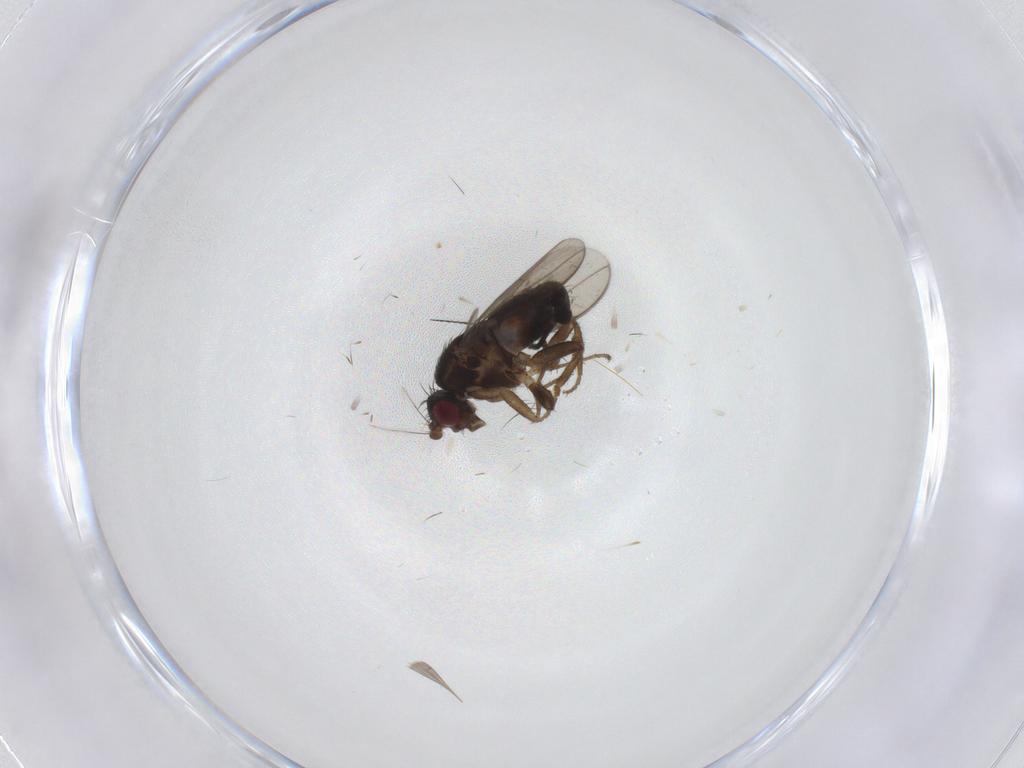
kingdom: Animalia
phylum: Arthropoda
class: Insecta
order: Diptera
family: Sphaeroceridae
